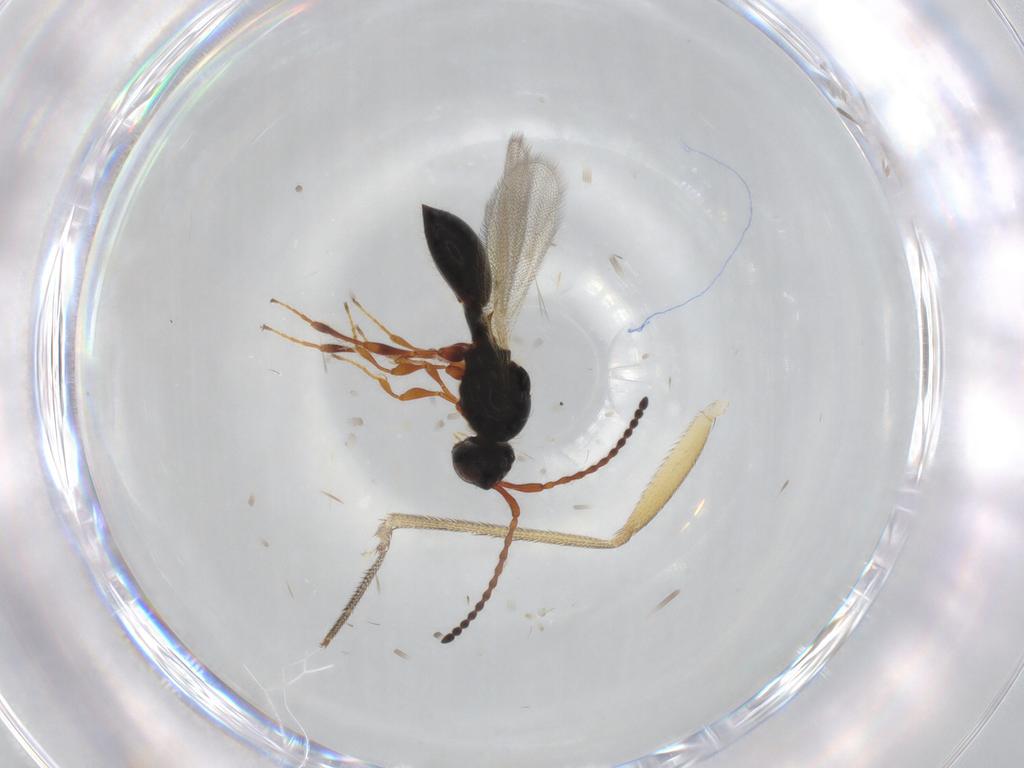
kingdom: Animalia
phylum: Arthropoda
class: Insecta
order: Hymenoptera
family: Diapriidae
